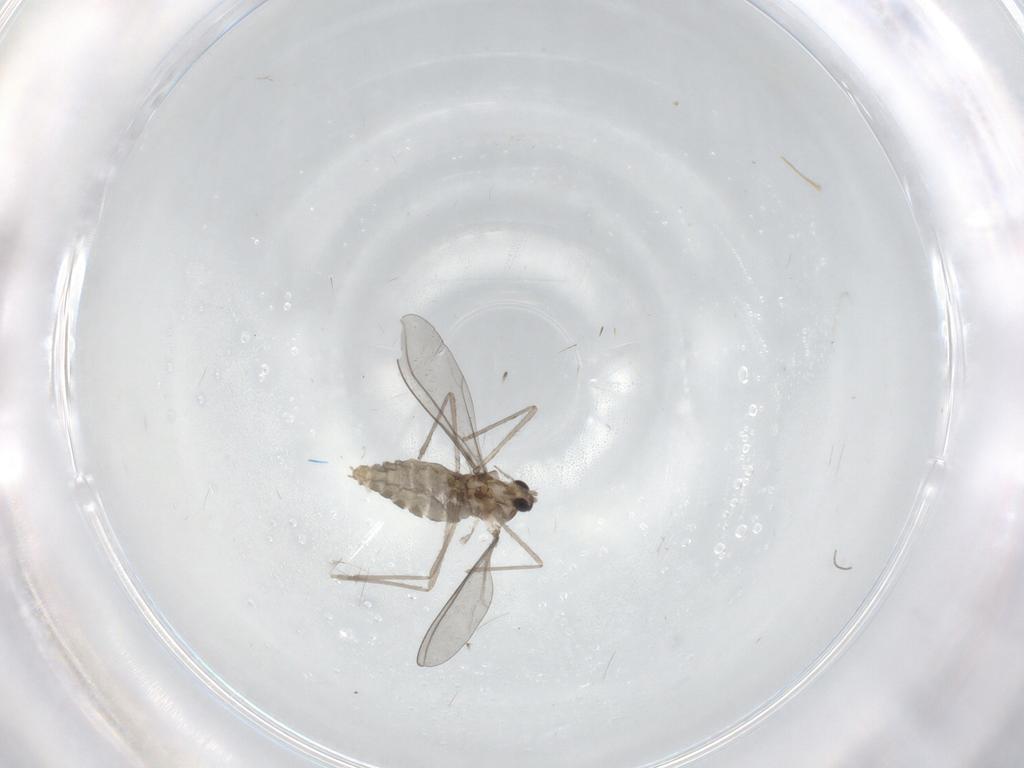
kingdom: Animalia
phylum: Arthropoda
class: Insecta
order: Diptera
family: Cecidomyiidae
